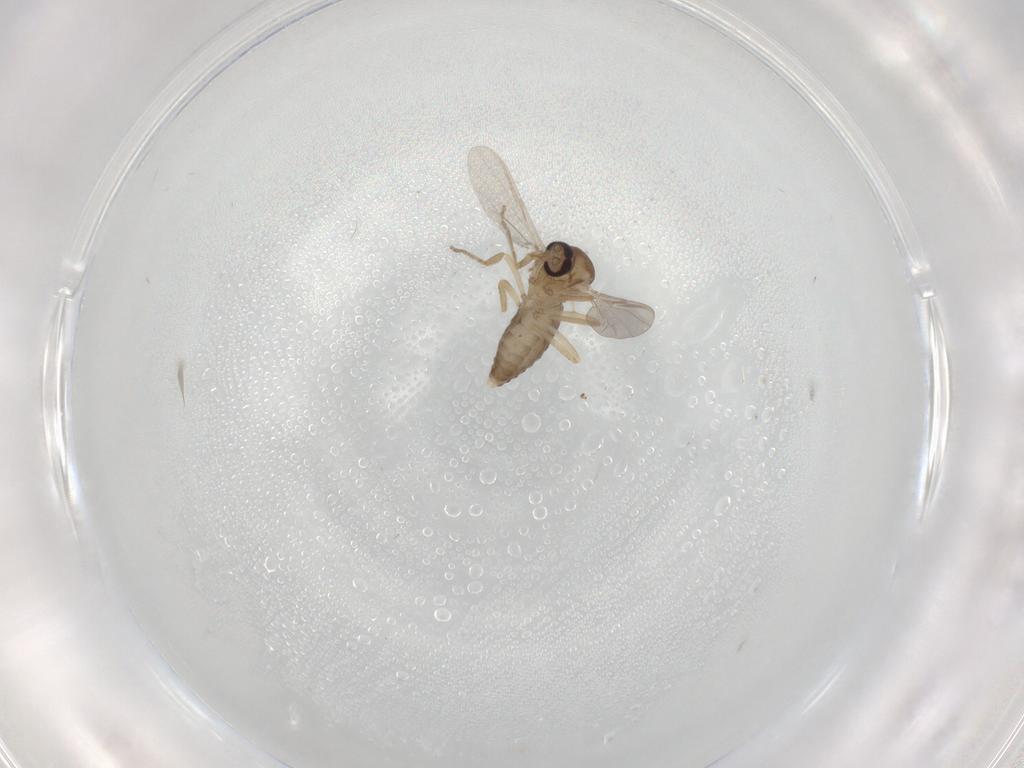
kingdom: Animalia
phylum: Arthropoda
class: Insecta
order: Diptera
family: Ceratopogonidae
